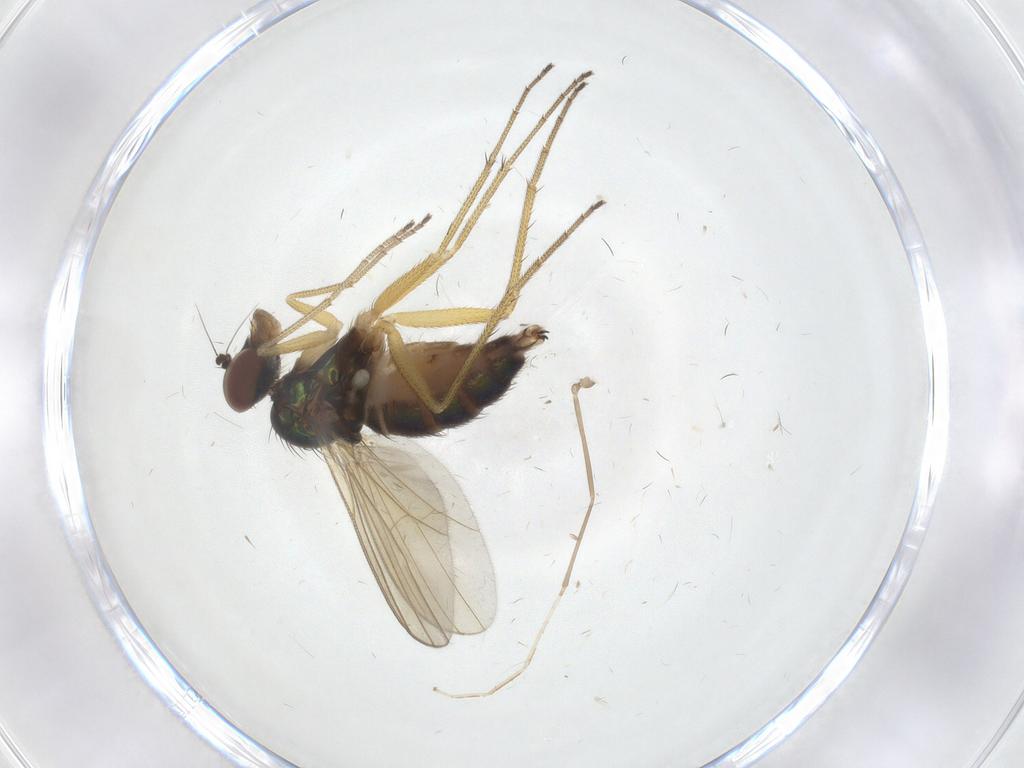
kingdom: Animalia
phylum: Arthropoda
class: Insecta
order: Diptera
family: Dolichopodidae
